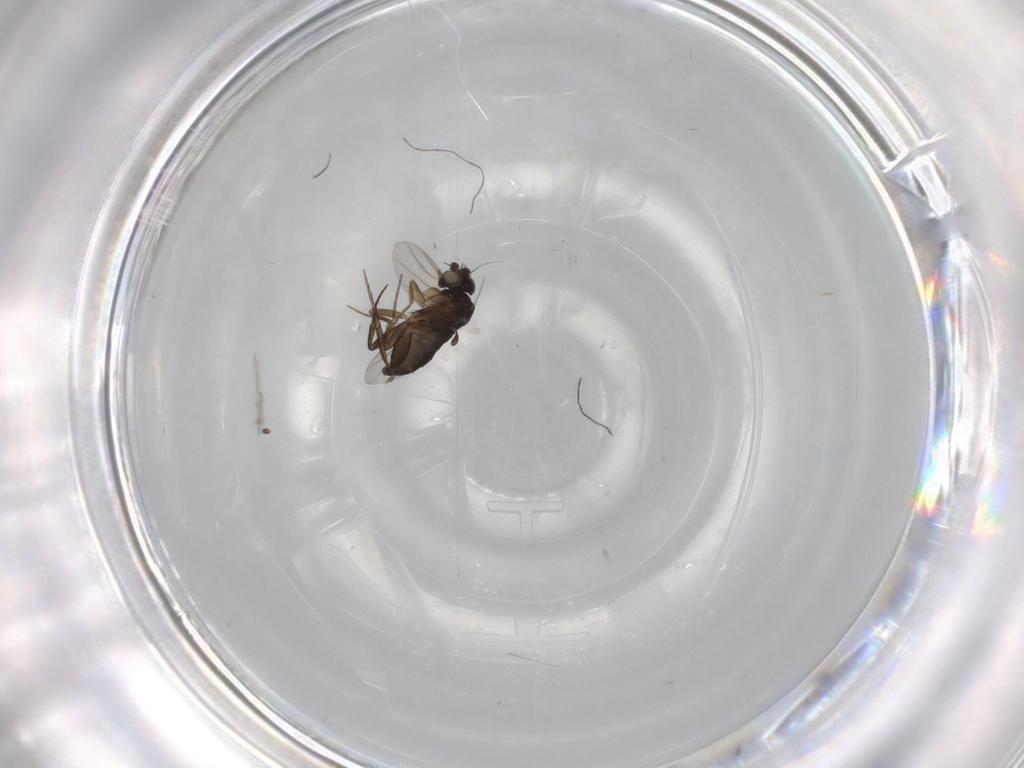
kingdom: Animalia
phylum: Arthropoda
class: Insecta
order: Diptera
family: Phoridae
